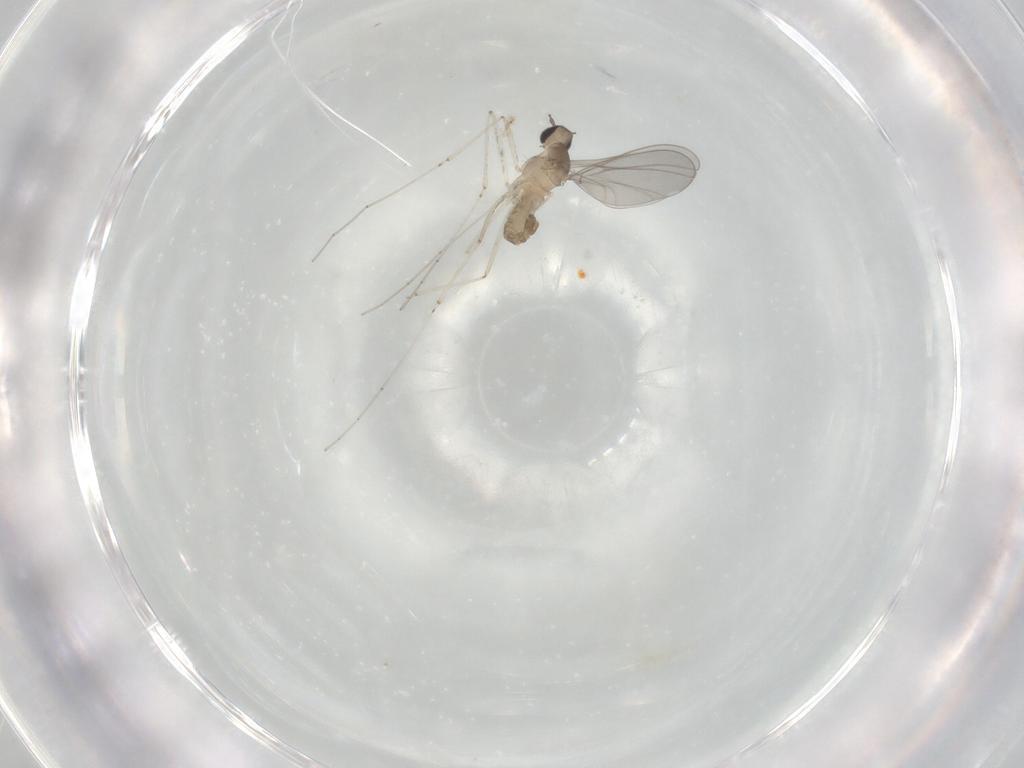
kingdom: Animalia
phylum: Arthropoda
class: Insecta
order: Diptera
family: Cecidomyiidae
